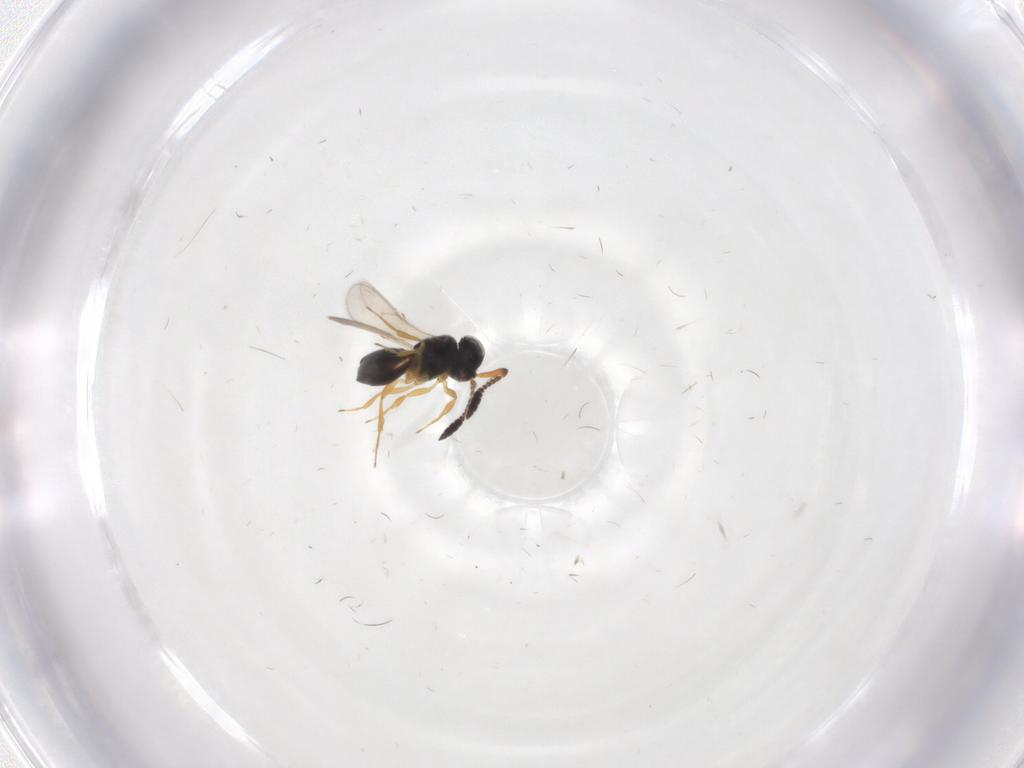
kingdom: Animalia
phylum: Arthropoda
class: Insecta
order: Hymenoptera
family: Scelionidae
